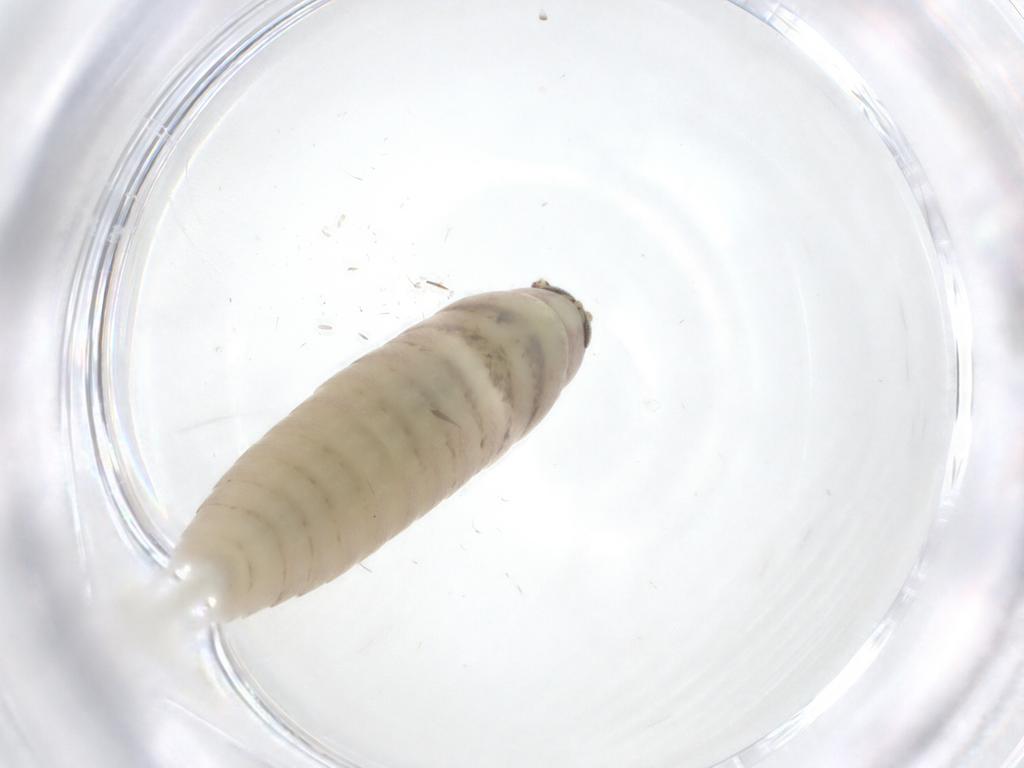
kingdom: Animalia
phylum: Arthropoda
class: Insecta
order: Archaeognatha
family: Machilidae
